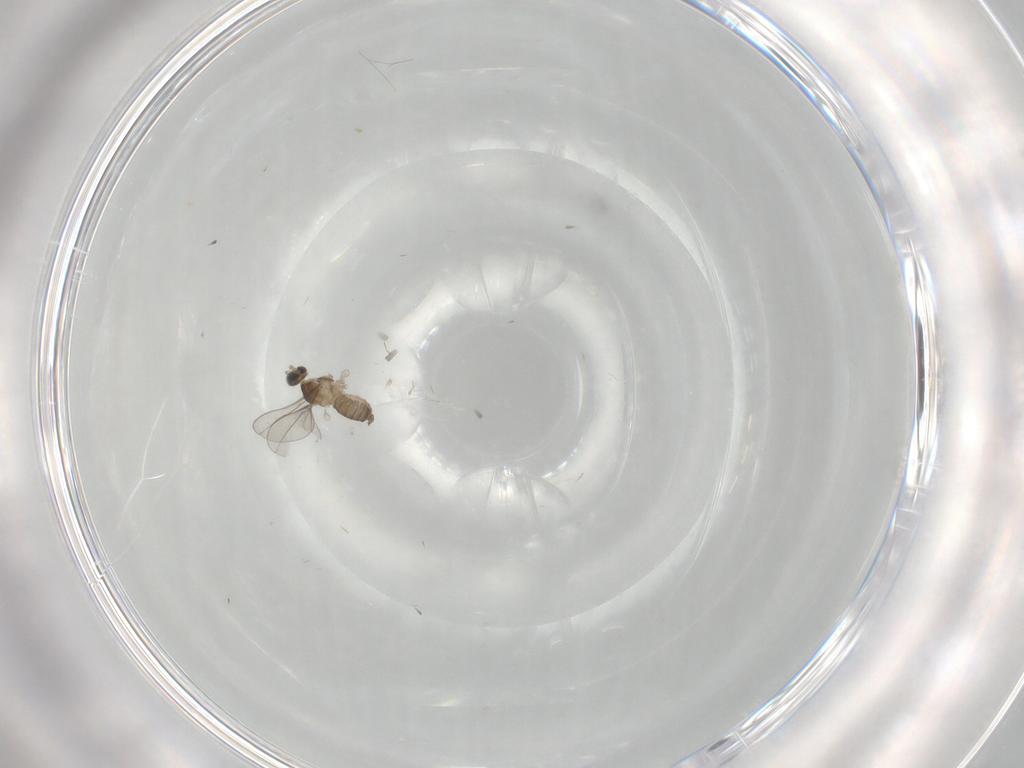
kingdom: Animalia
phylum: Arthropoda
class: Insecta
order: Diptera
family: Cecidomyiidae
